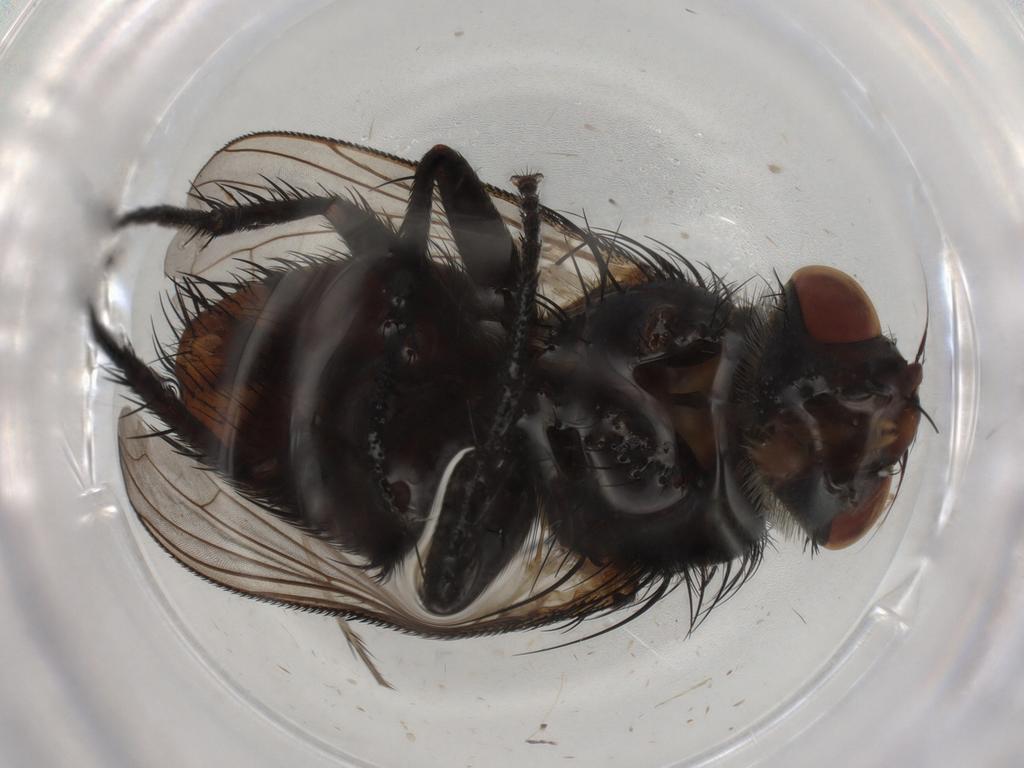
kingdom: Animalia
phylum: Arthropoda
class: Insecta
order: Diptera
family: Tachinidae
